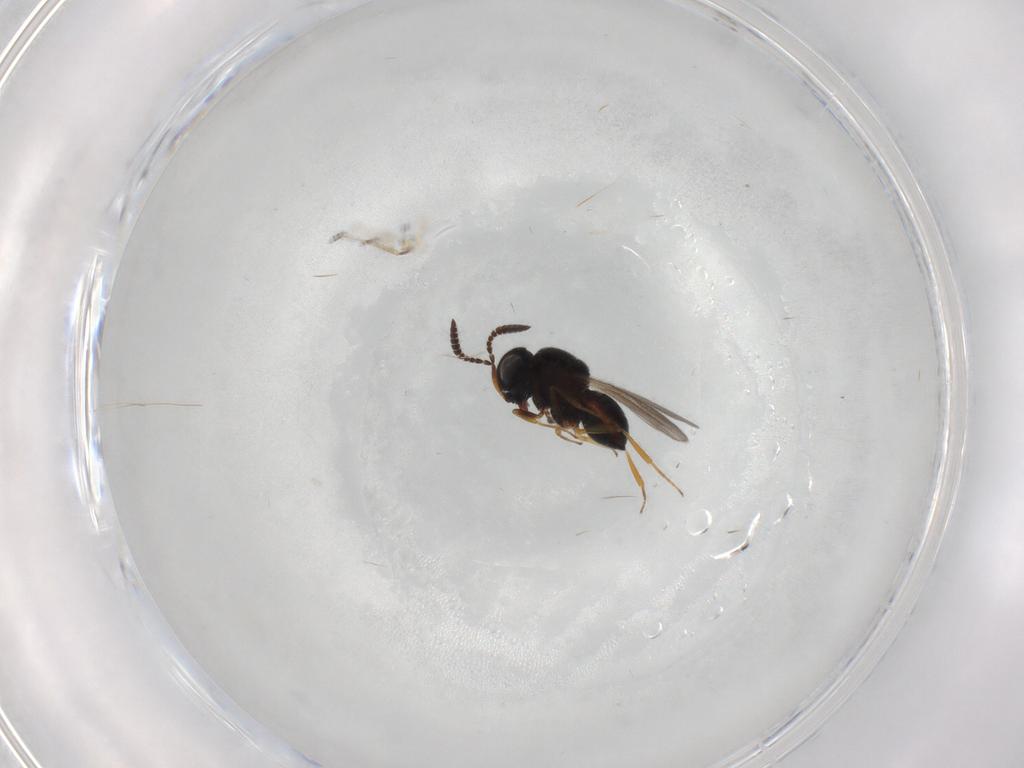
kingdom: Animalia
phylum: Arthropoda
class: Insecta
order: Hymenoptera
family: Scelionidae
